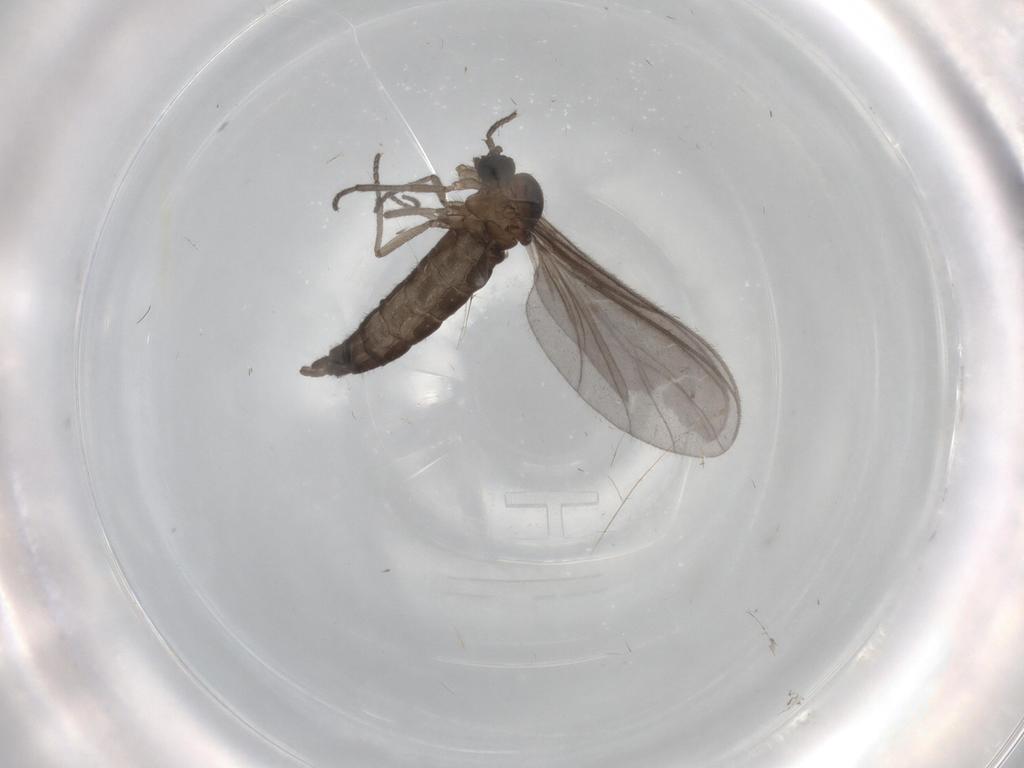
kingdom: Animalia
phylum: Arthropoda
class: Insecta
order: Diptera
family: Sciaridae
